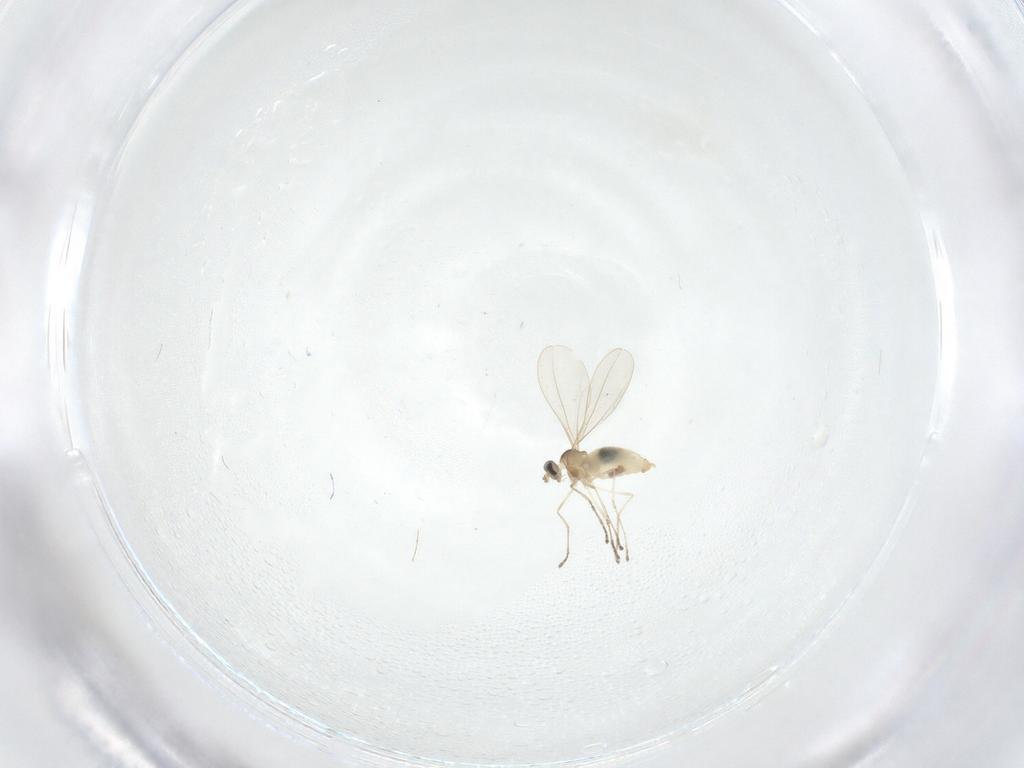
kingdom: Animalia
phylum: Arthropoda
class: Insecta
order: Diptera
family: Cecidomyiidae
